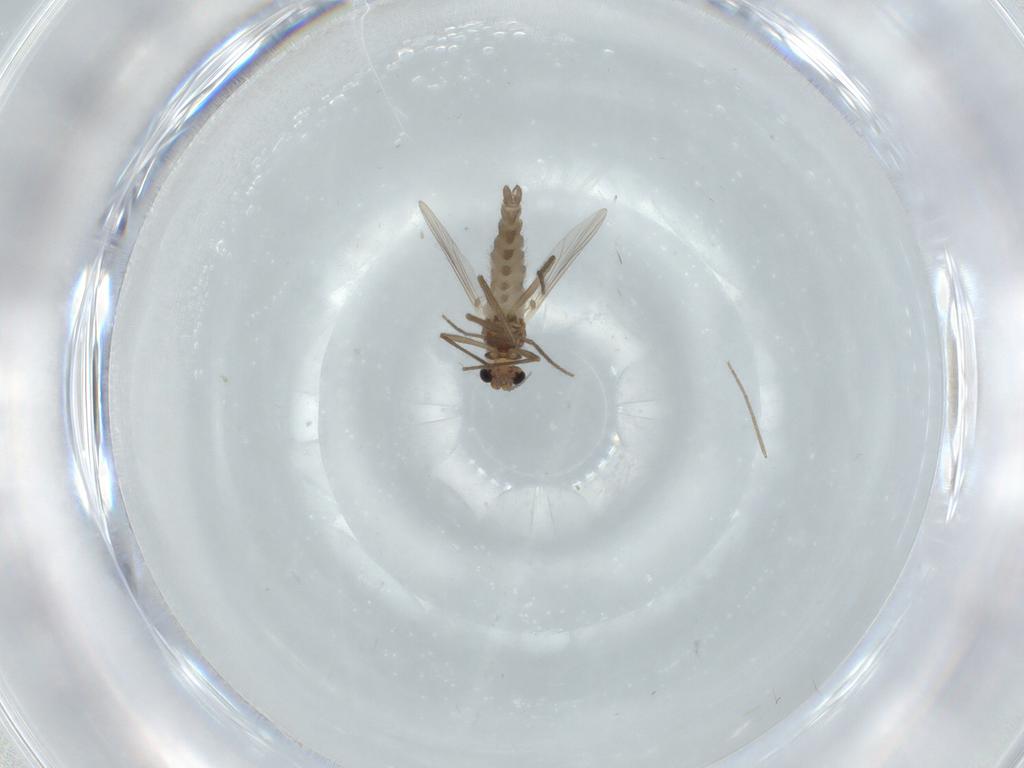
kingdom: Animalia
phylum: Arthropoda
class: Insecta
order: Diptera
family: Chironomidae
